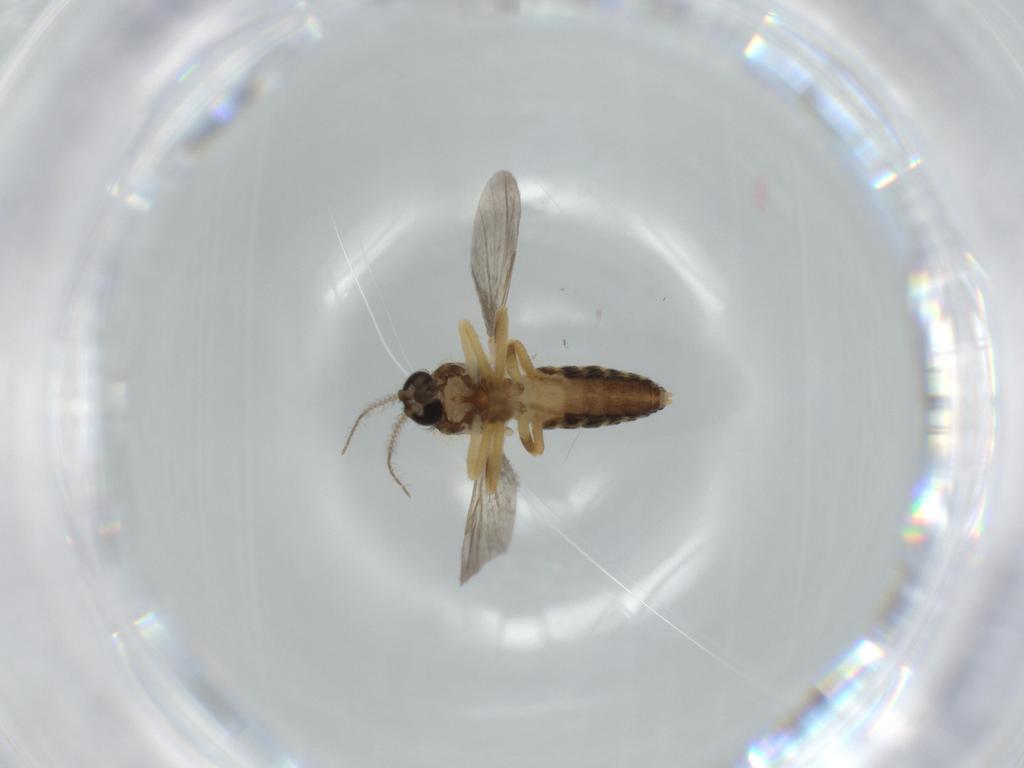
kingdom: Animalia
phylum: Arthropoda
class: Insecta
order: Diptera
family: Ceratopogonidae
